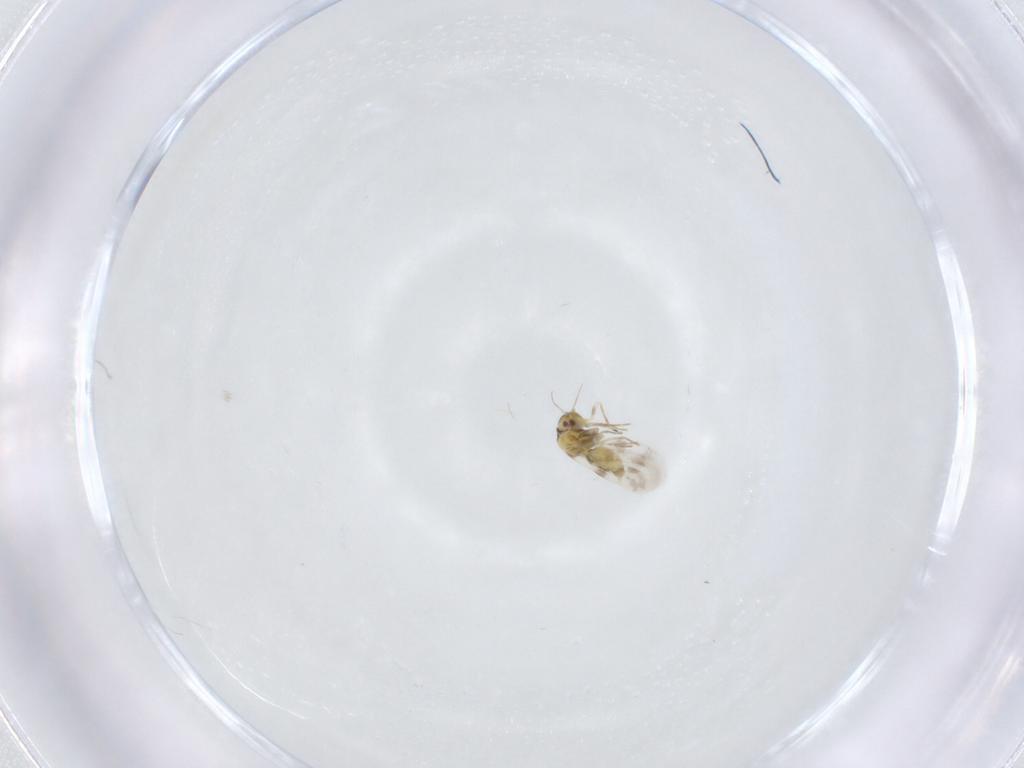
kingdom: Animalia
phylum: Arthropoda
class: Insecta
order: Hemiptera
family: Aleyrodidae
